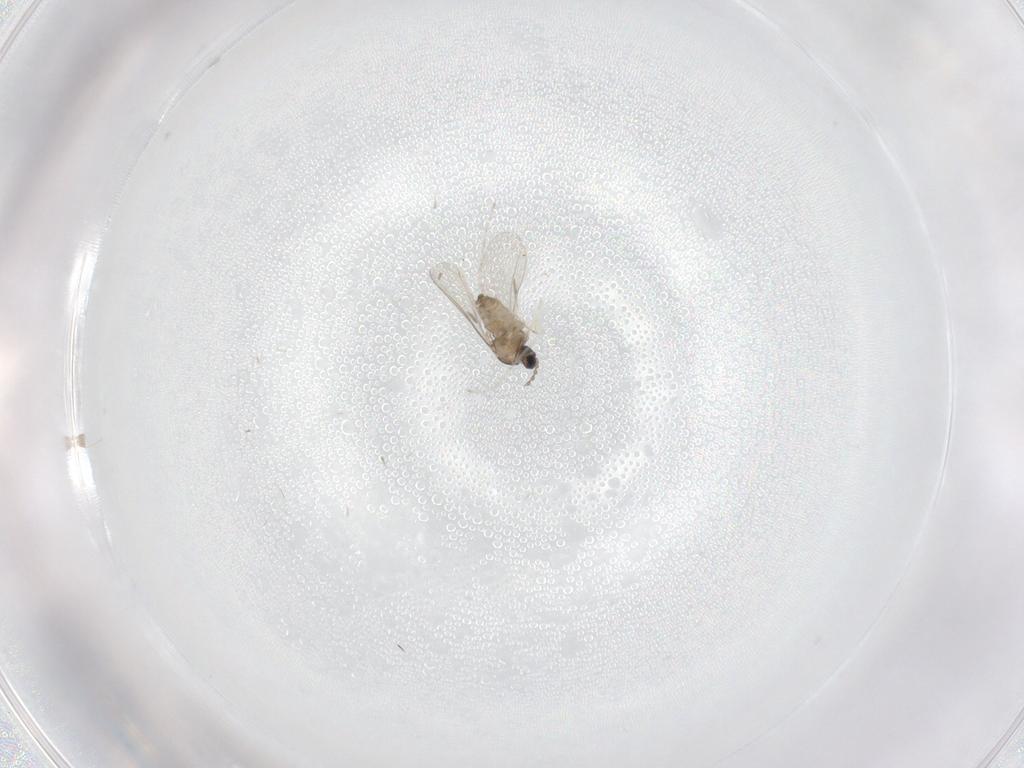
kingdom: Animalia
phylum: Arthropoda
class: Insecta
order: Diptera
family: Cecidomyiidae
